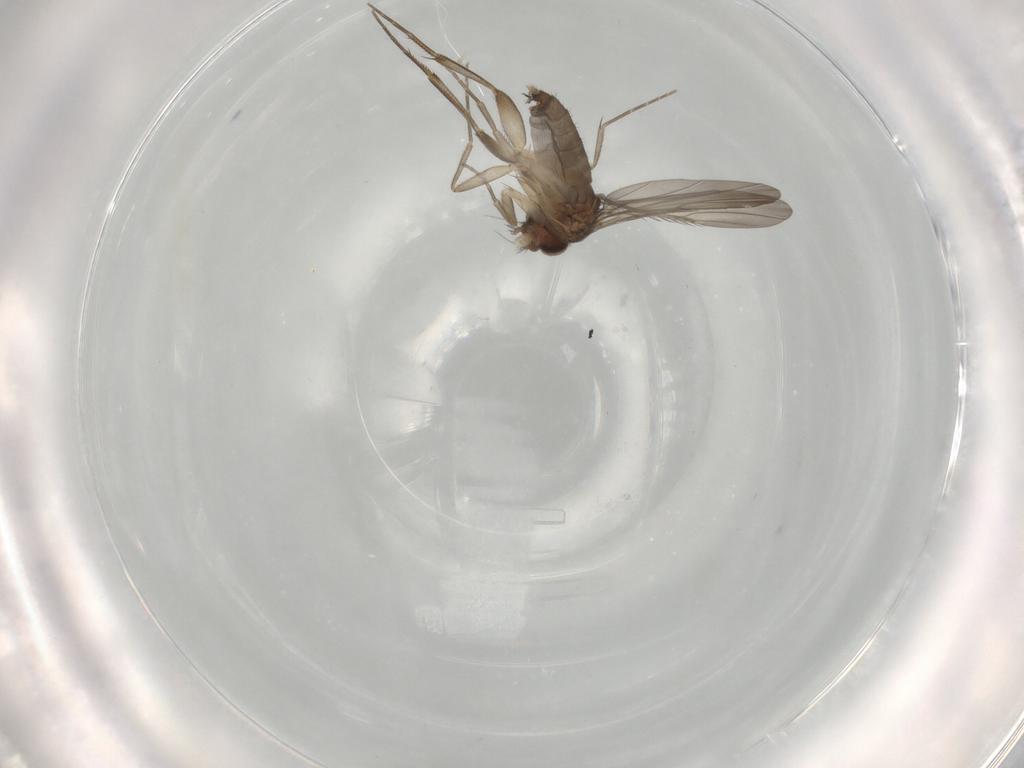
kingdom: Animalia
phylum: Arthropoda
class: Insecta
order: Diptera
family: Phoridae
